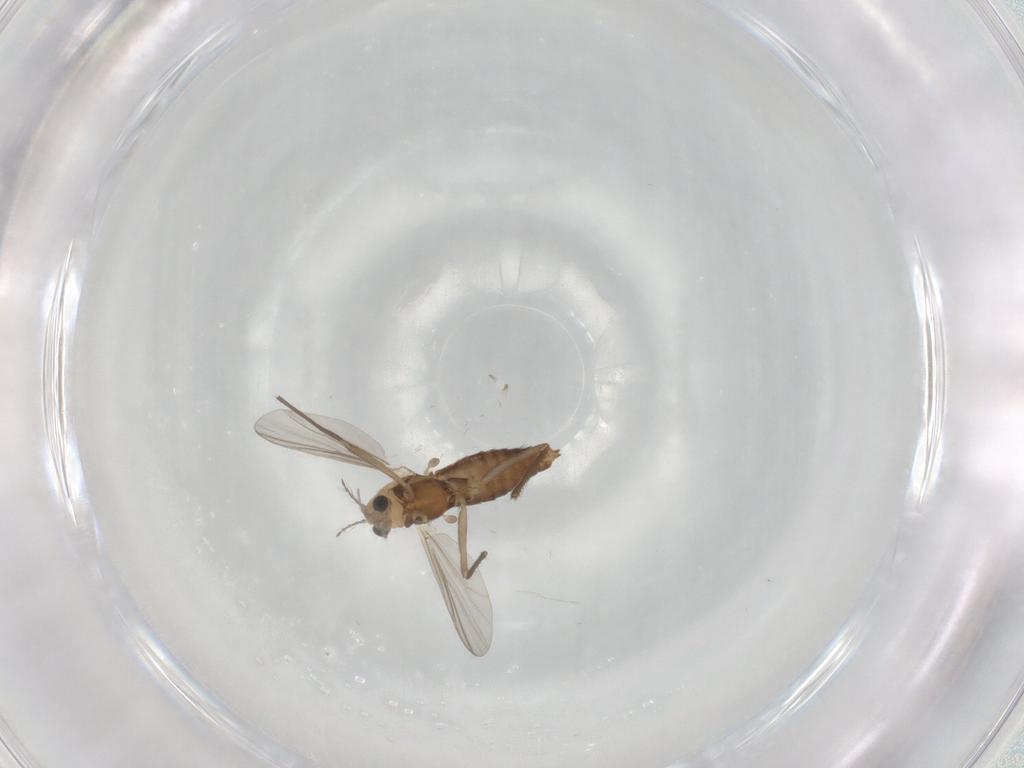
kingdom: Animalia
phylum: Arthropoda
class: Insecta
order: Diptera
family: Chironomidae
